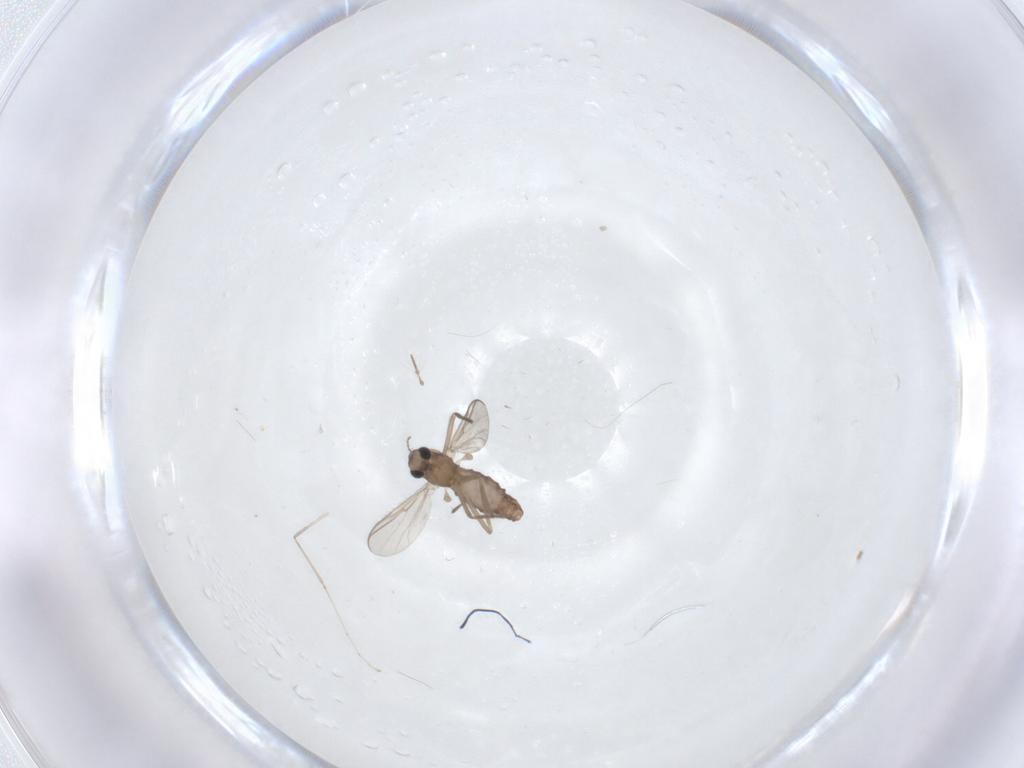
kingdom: Animalia
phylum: Arthropoda
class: Insecta
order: Diptera
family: Chironomidae
